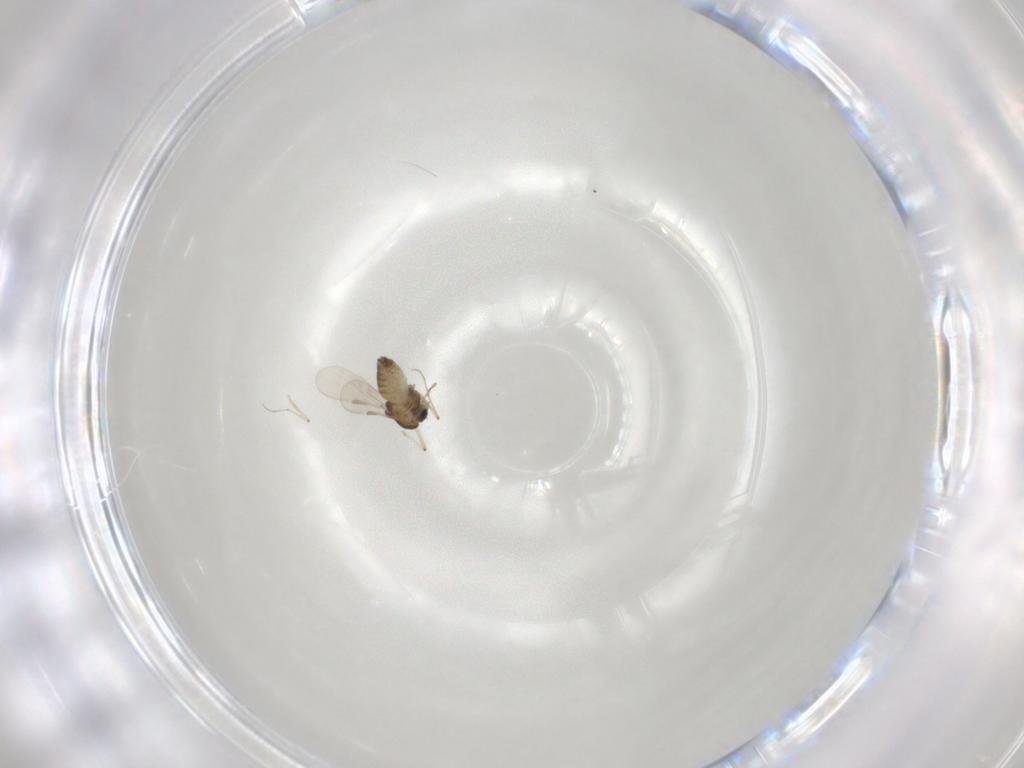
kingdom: Animalia
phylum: Arthropoda
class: Insecta
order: Diptera
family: Chironomidae
